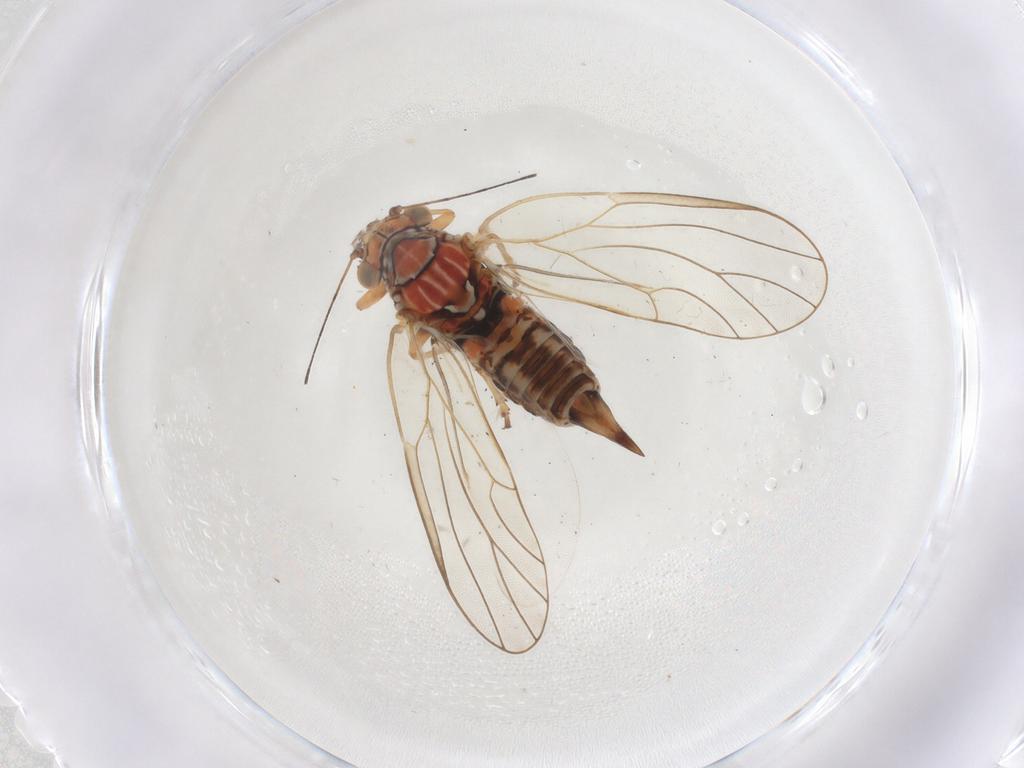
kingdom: Animalia
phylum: Arthropoda
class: Insecta
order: Hemiptera
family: Psyllidae
